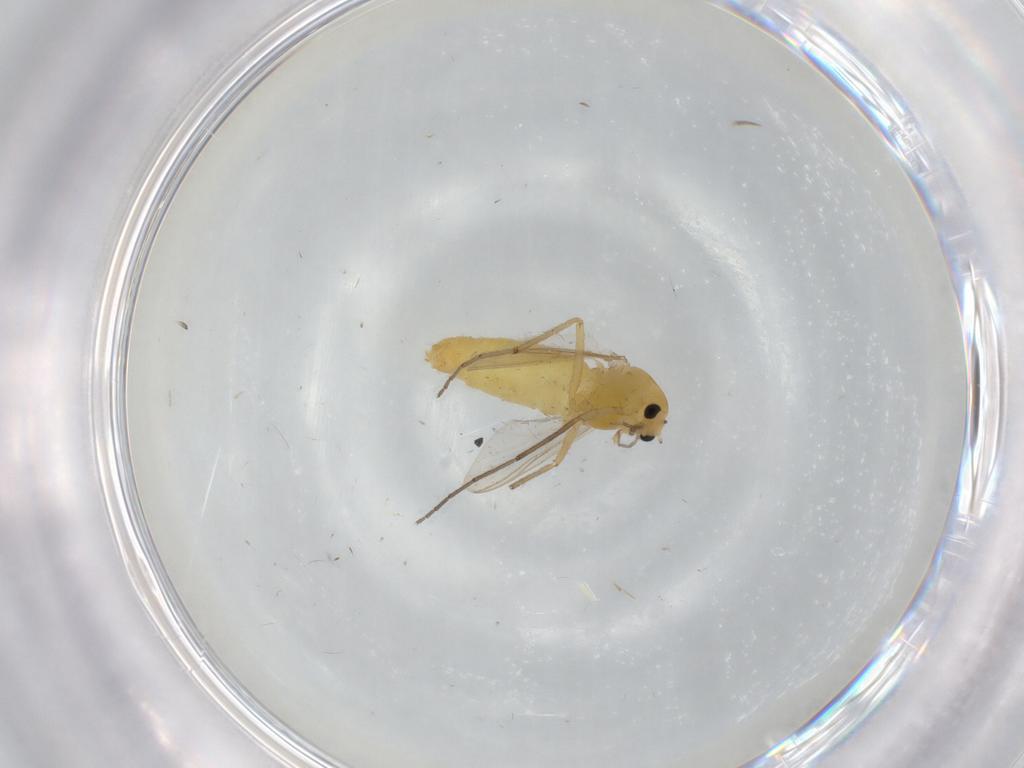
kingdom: Animalia
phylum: Arthropoda
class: Insecta
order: Diptera
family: Chironomidae
